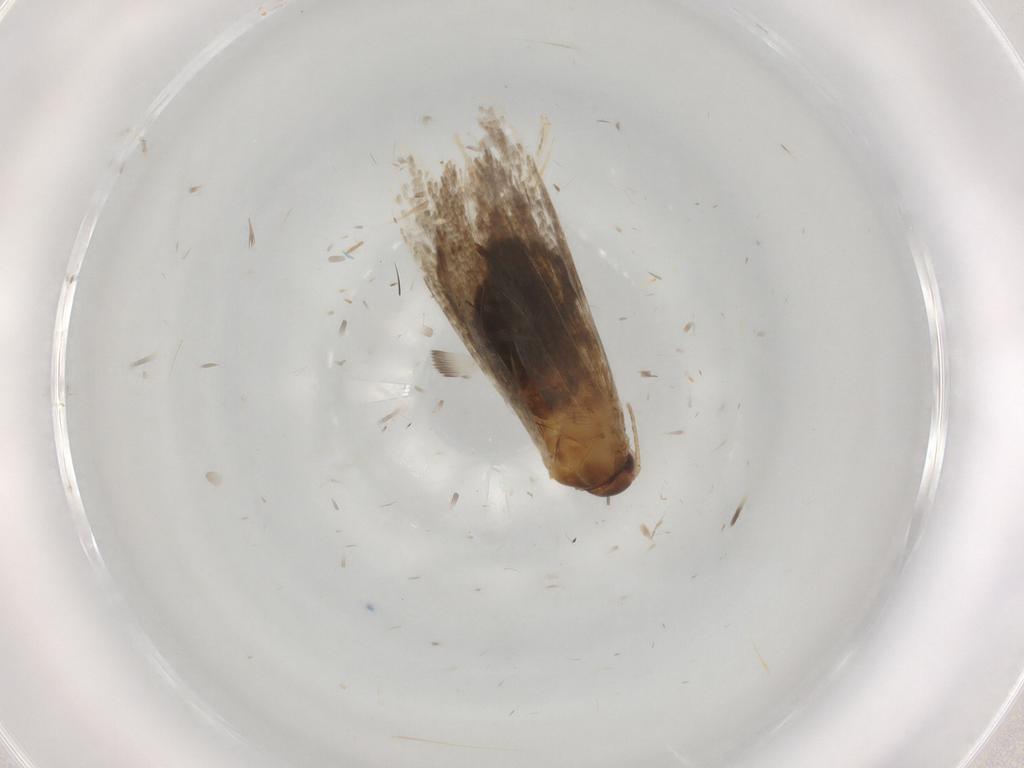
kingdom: Animalia
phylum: Arthropoda
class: Insecta
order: Lepidoptera
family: Oecophoridae
